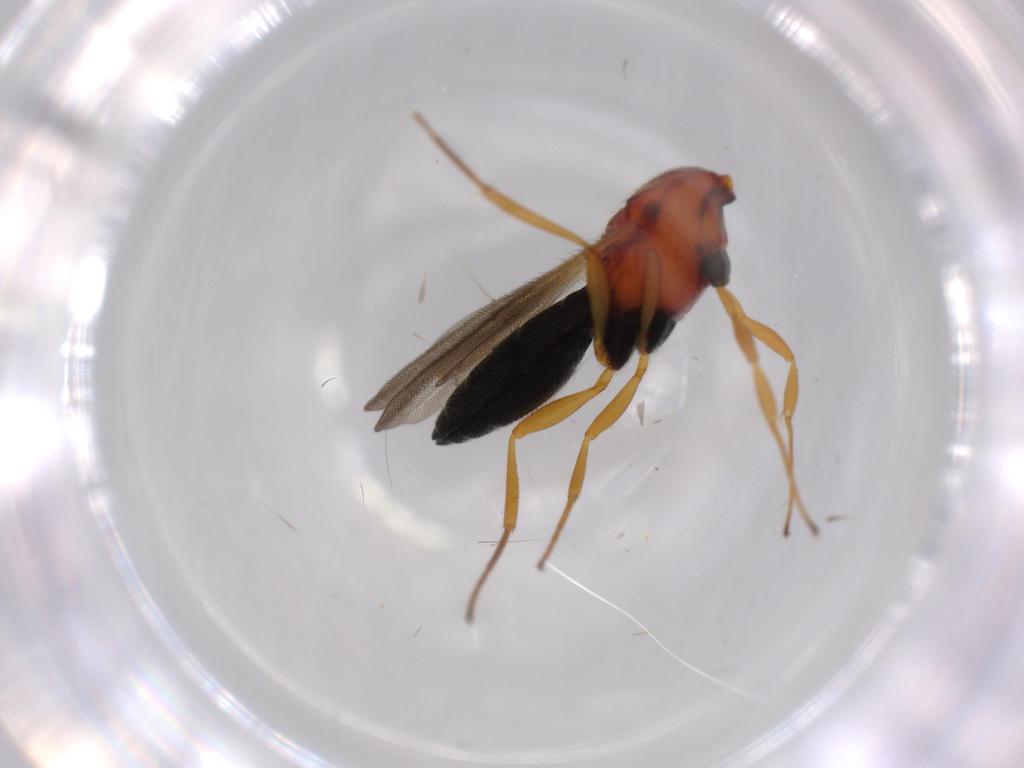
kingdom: Animalia
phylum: Arthropoda
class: Insecta
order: Hymenoptera
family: Scelionidae
